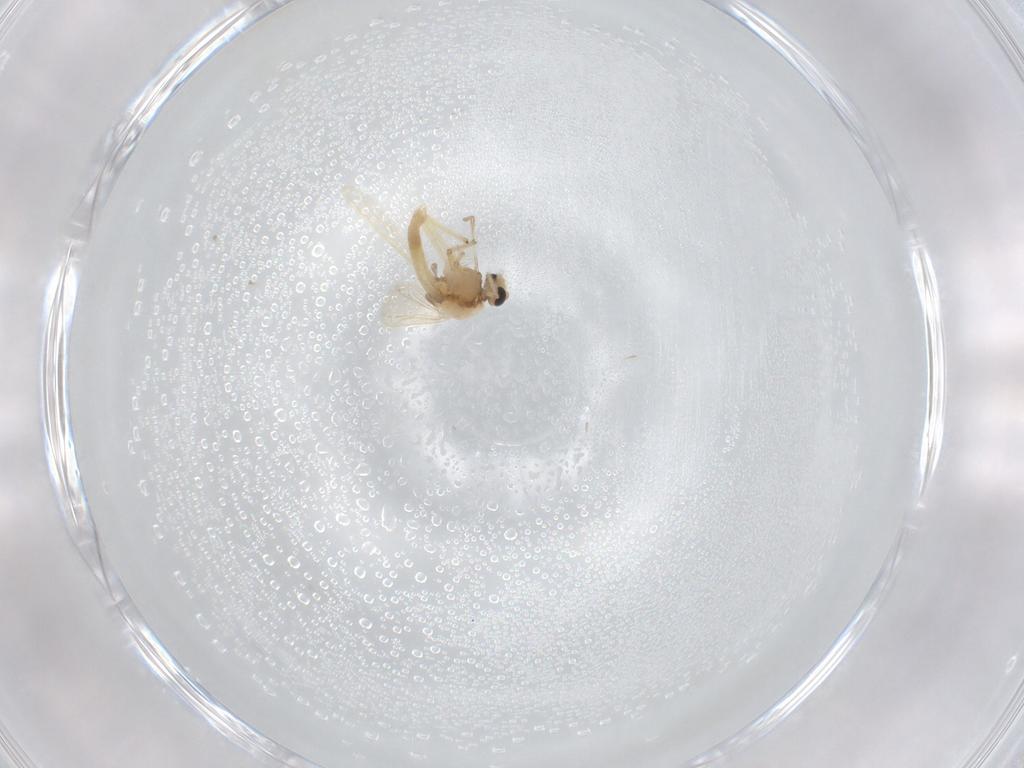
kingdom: Animalia
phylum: Arthropoda
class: Insecta
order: Diptera
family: Chironomidae
